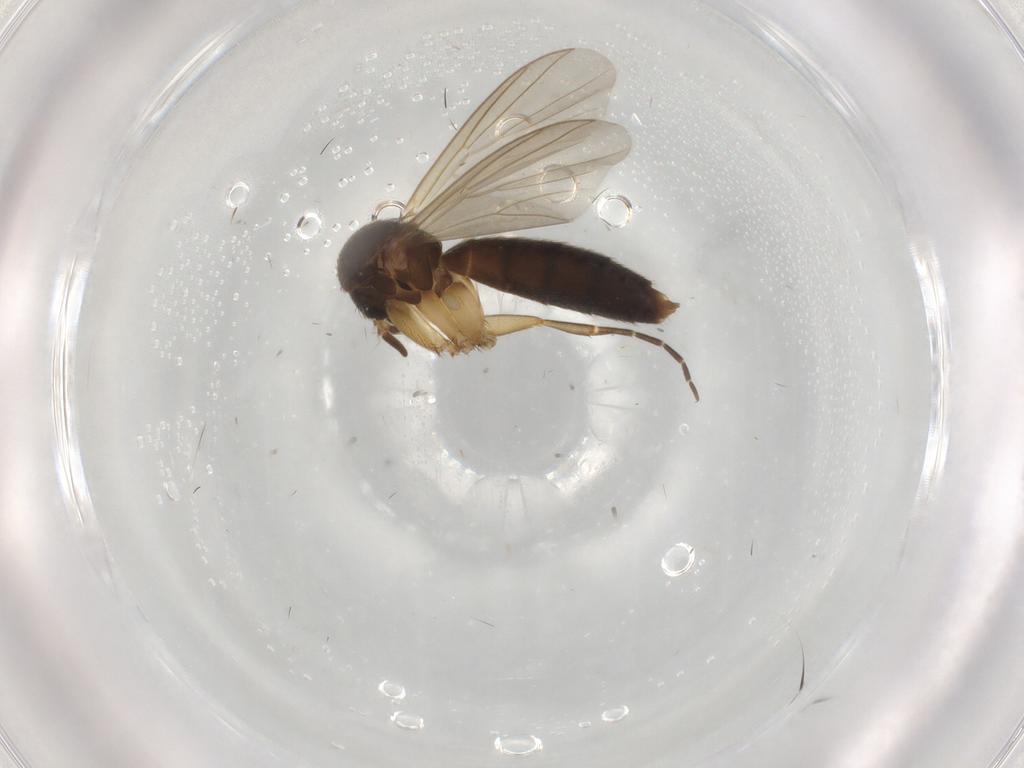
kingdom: Animalia
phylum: Arthropoda
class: Insecta
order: Diptera
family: Mycetophilidae
